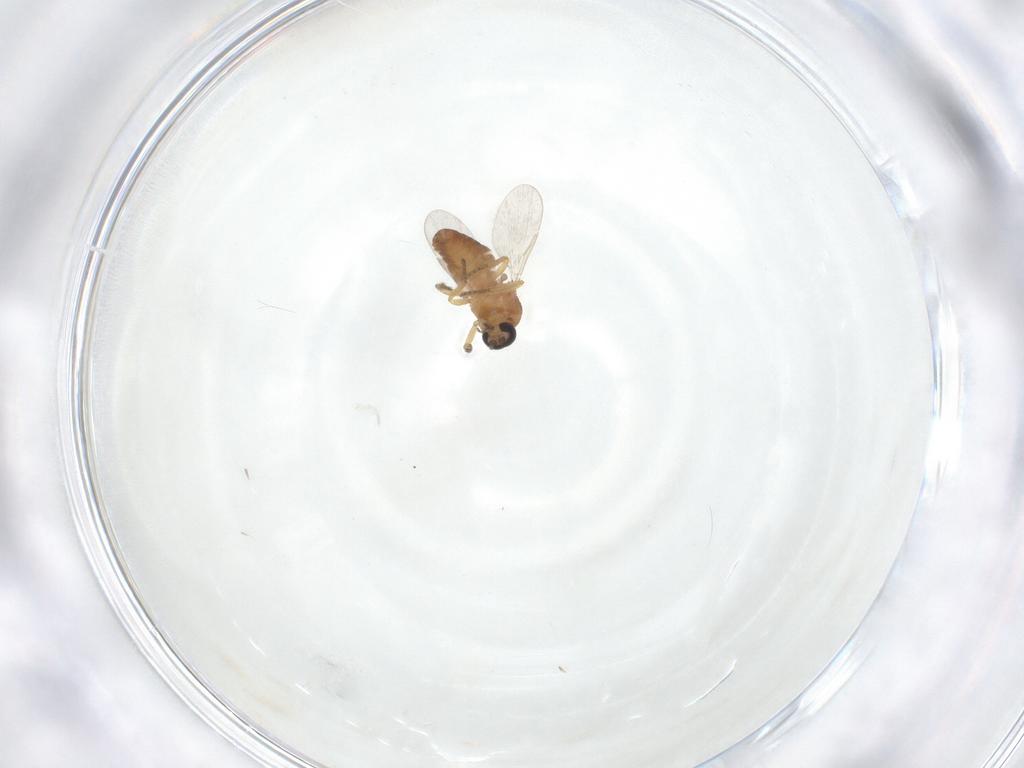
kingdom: Animalia
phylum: Arthropoda
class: Insecta
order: Diptera
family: Ceratopogonidae
